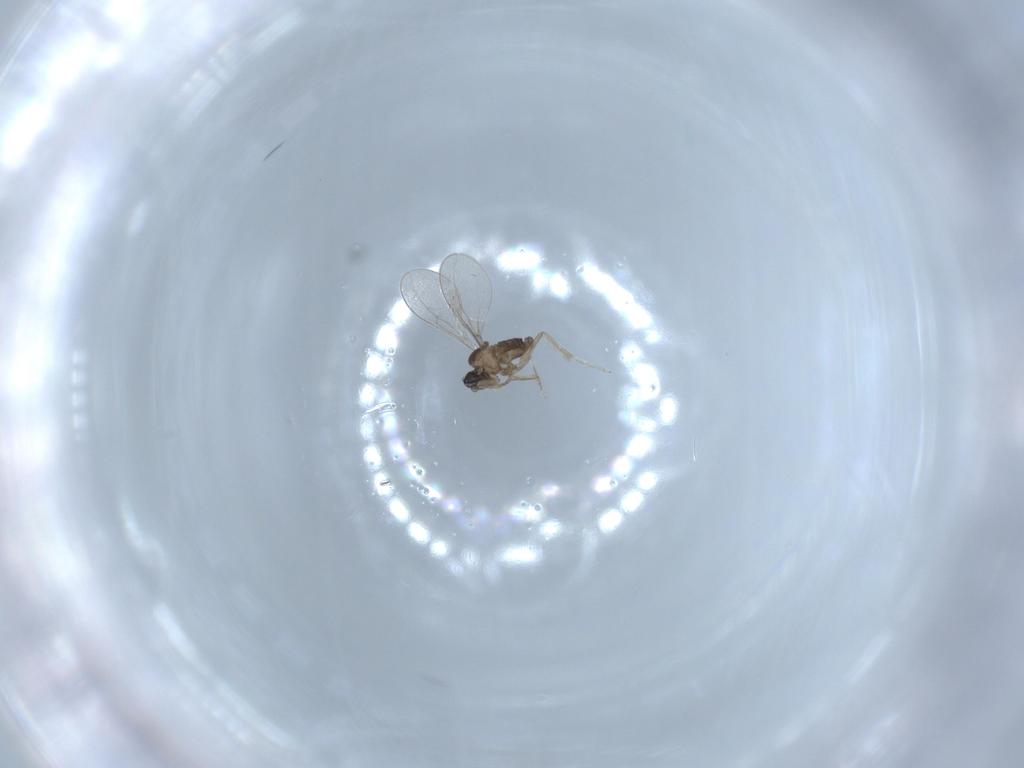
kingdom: Animalia
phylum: Arthropoda
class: Insecta
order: Diptera
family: Cecidomyiidae
